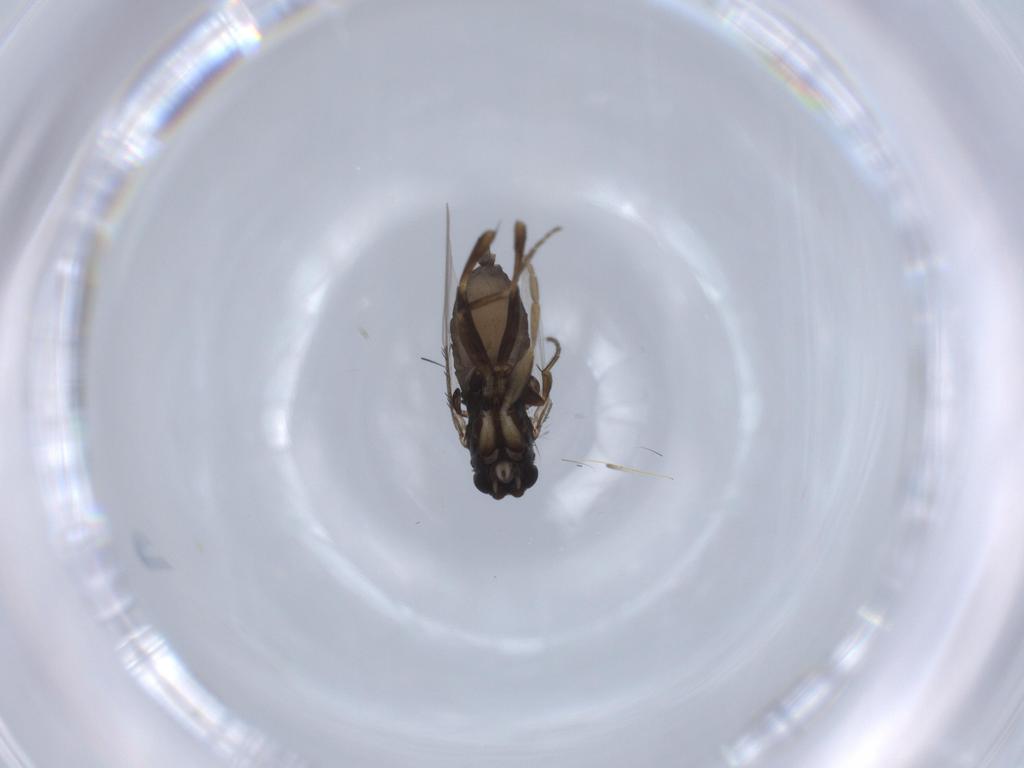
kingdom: Animalia
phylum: Arthropoda
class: Insecta
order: Diptera
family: Phoridae
